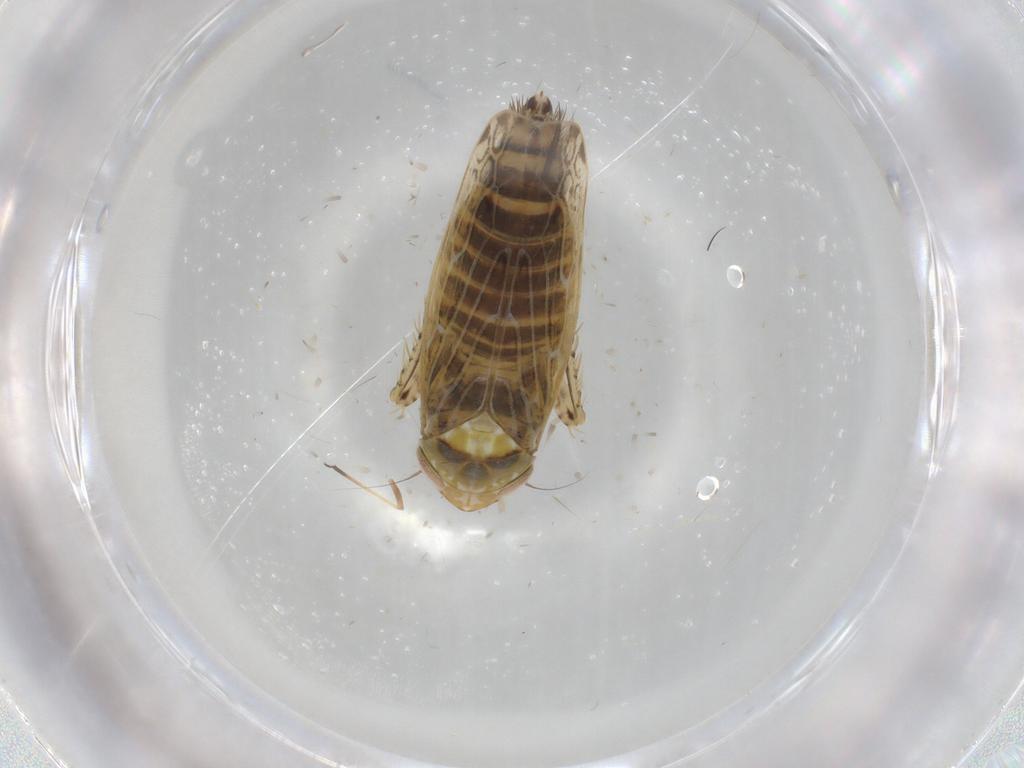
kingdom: Animalia
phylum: Arthropoda
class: Insecta
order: Hemiptera
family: Cicadellidae
